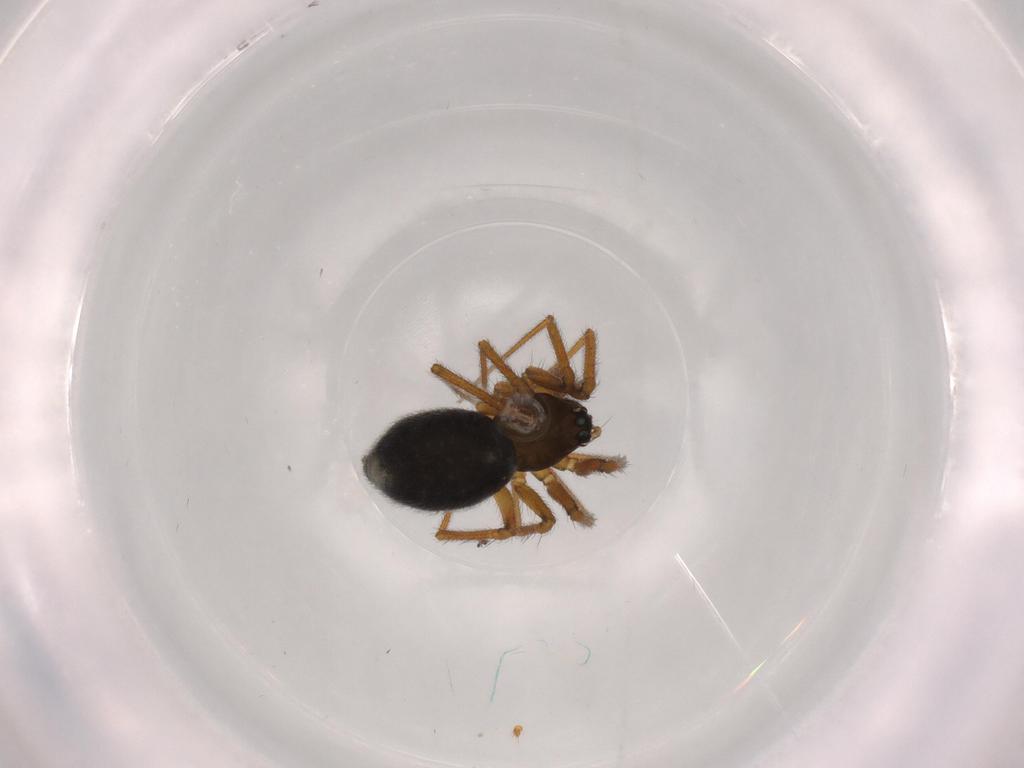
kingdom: Animalia
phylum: Arthropoda
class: Arachnida
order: Araneae
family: Linyphiidae
